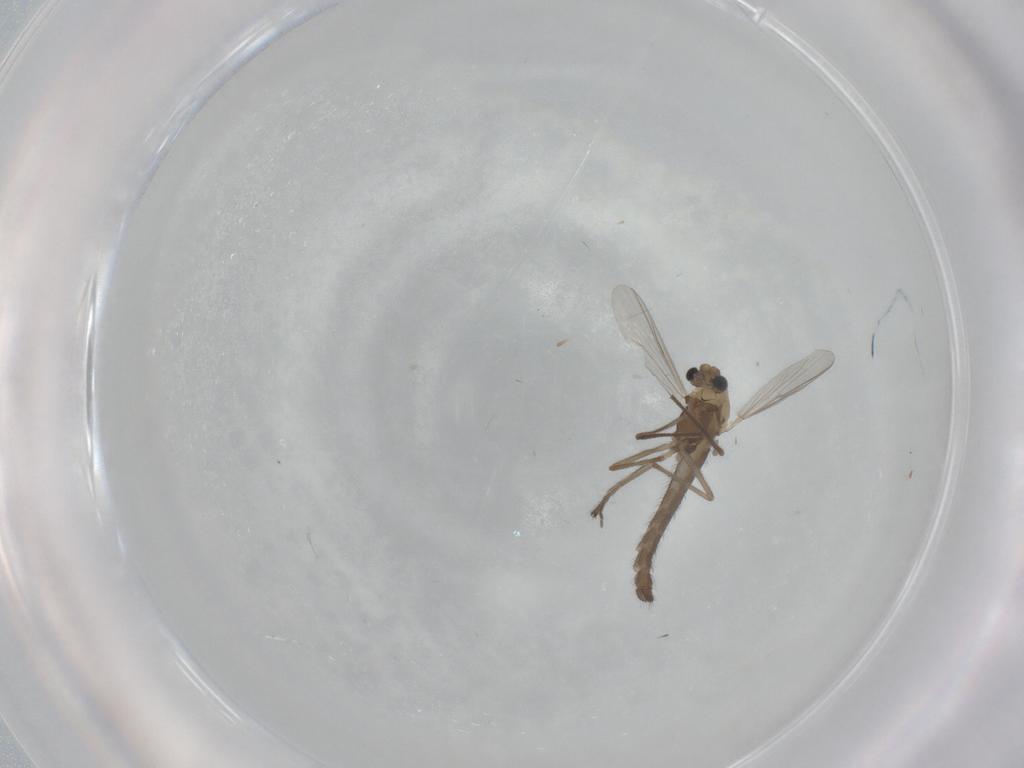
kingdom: Animalia
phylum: Arthropoda
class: Insecta
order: Diptera
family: Chironomidae
